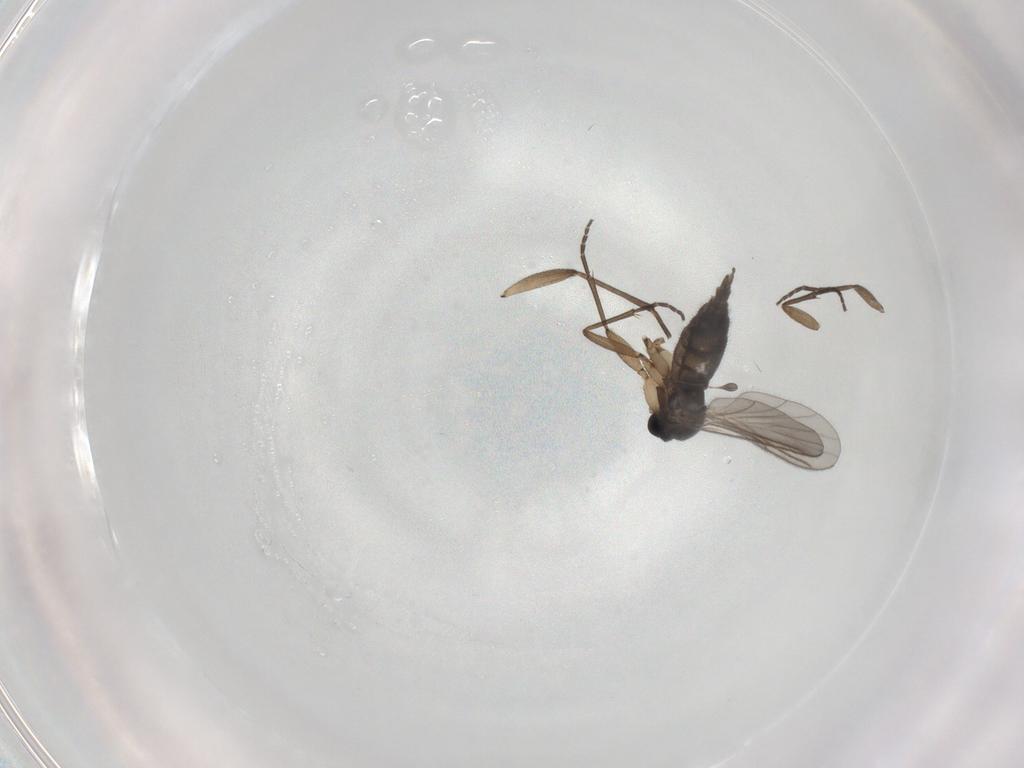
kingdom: Animalia
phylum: Arthropoda
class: Insecta
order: Diptera
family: Sciaridae
